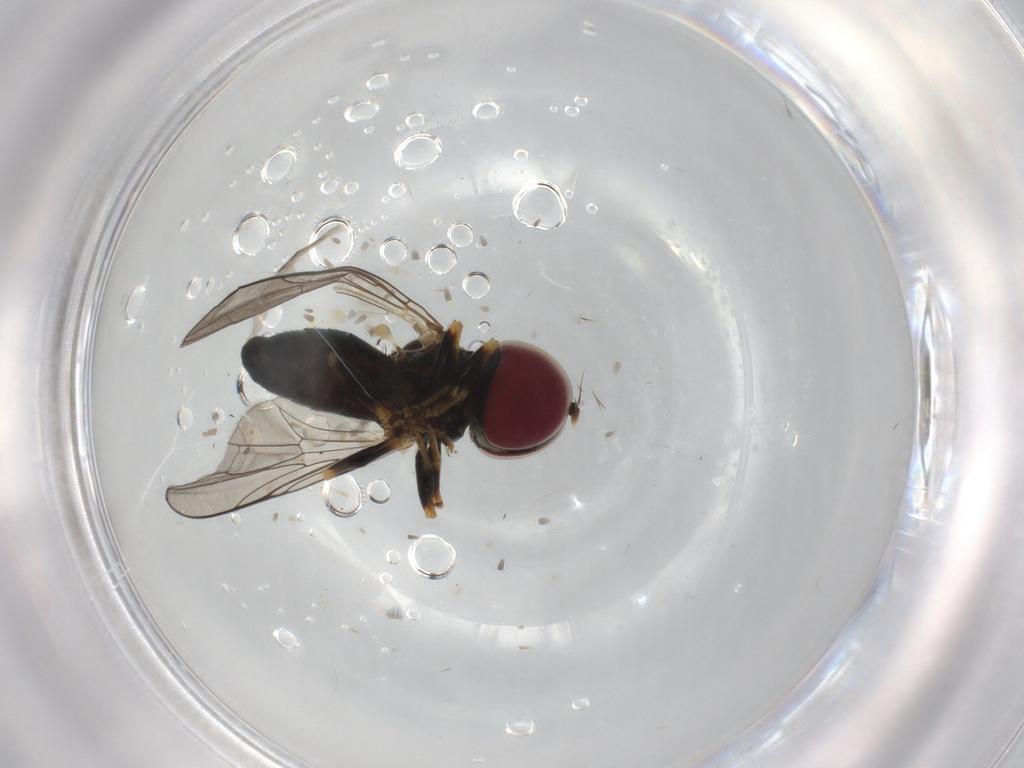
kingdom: Animalia
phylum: Arthropoda
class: Insecta
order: Diptera
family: Pipunculidae
